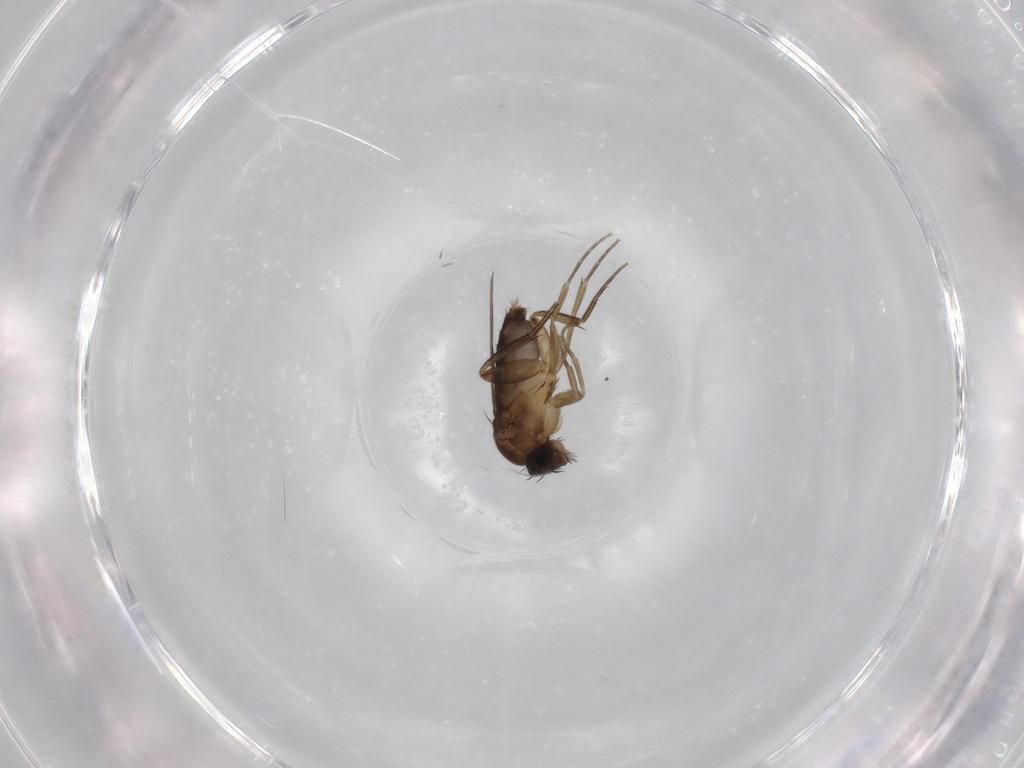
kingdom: Animalia
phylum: Arthropoda
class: Insecta
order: Diptera
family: Phoridae
